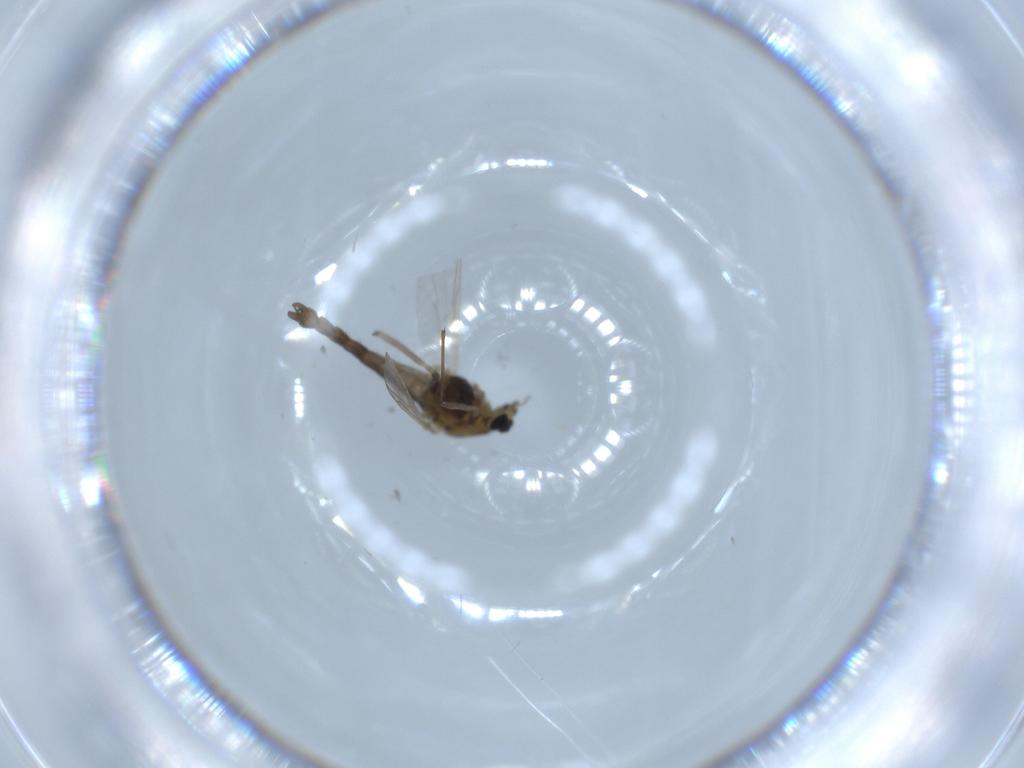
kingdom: Animalia
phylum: Arthropoda
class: Insecta
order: Diptera
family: Chironomidae
